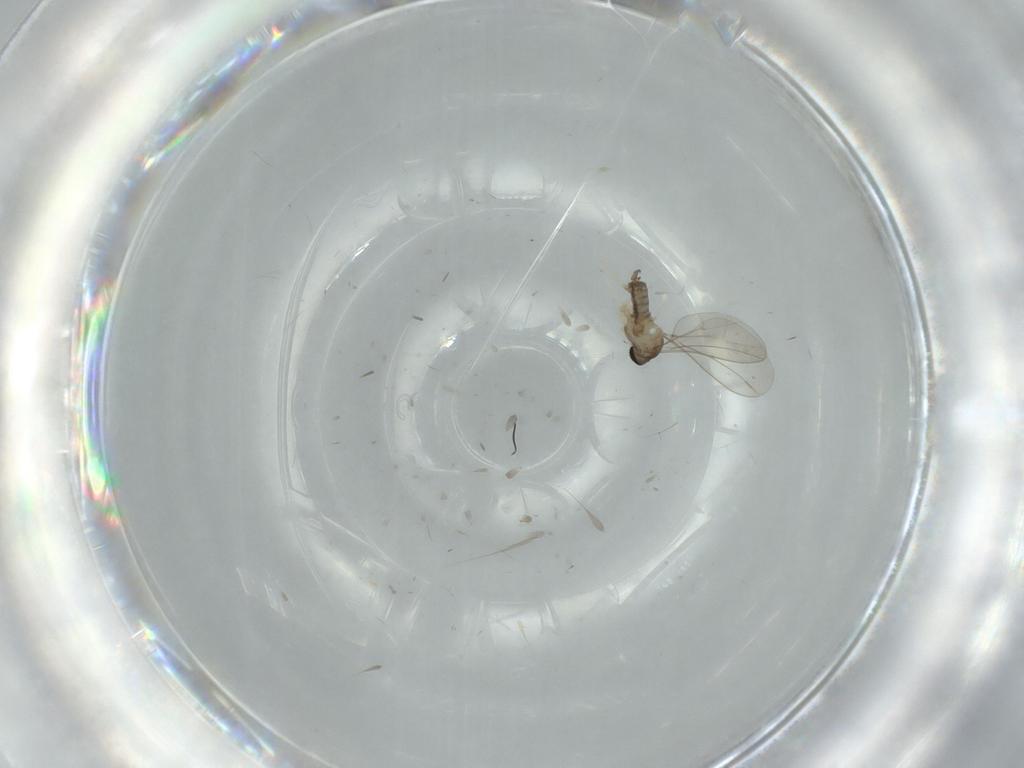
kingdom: Animalia
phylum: Arthropoda
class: Insecta
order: Diptera
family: Cecidomyiidae
